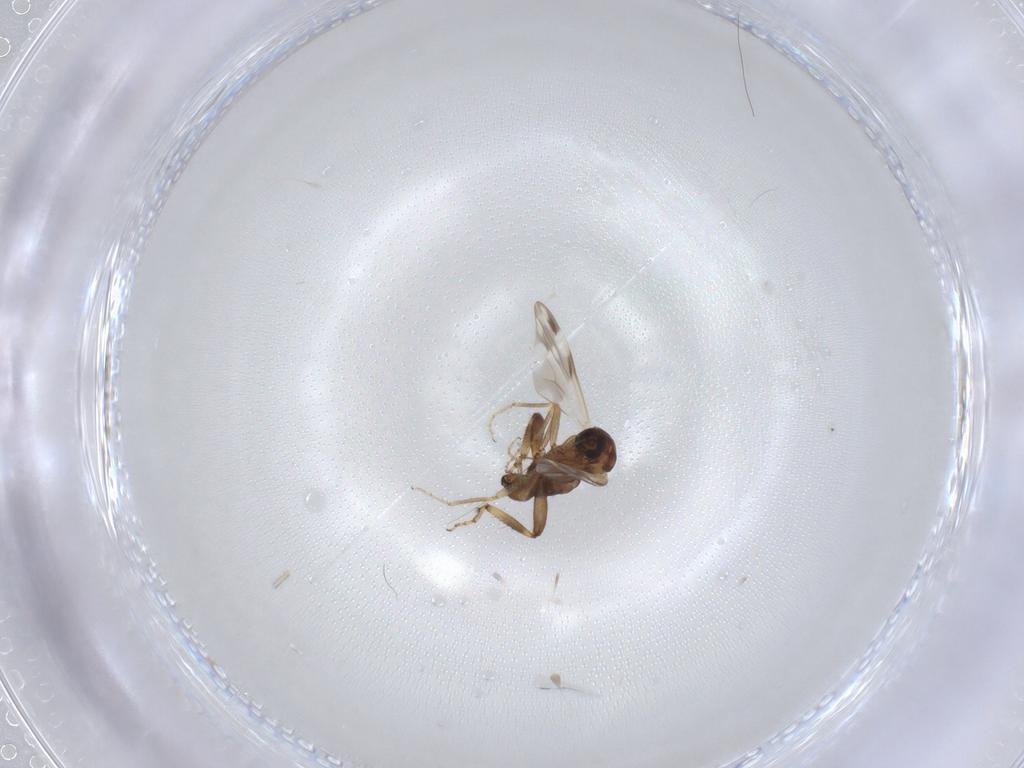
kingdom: Animalia
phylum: Arthropoda
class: Insecta
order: Diptera
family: Ceratopogonidae
